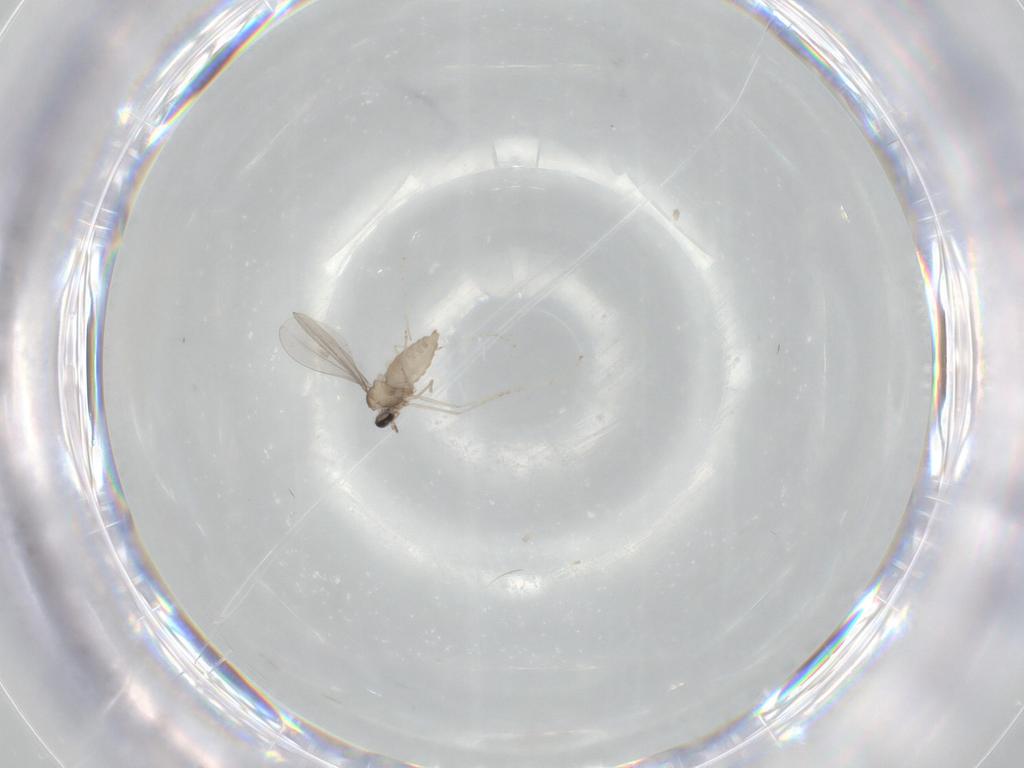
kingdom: Animalia
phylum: Arthropoda
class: Insecta
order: Diptera
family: Cecidomyiidae
